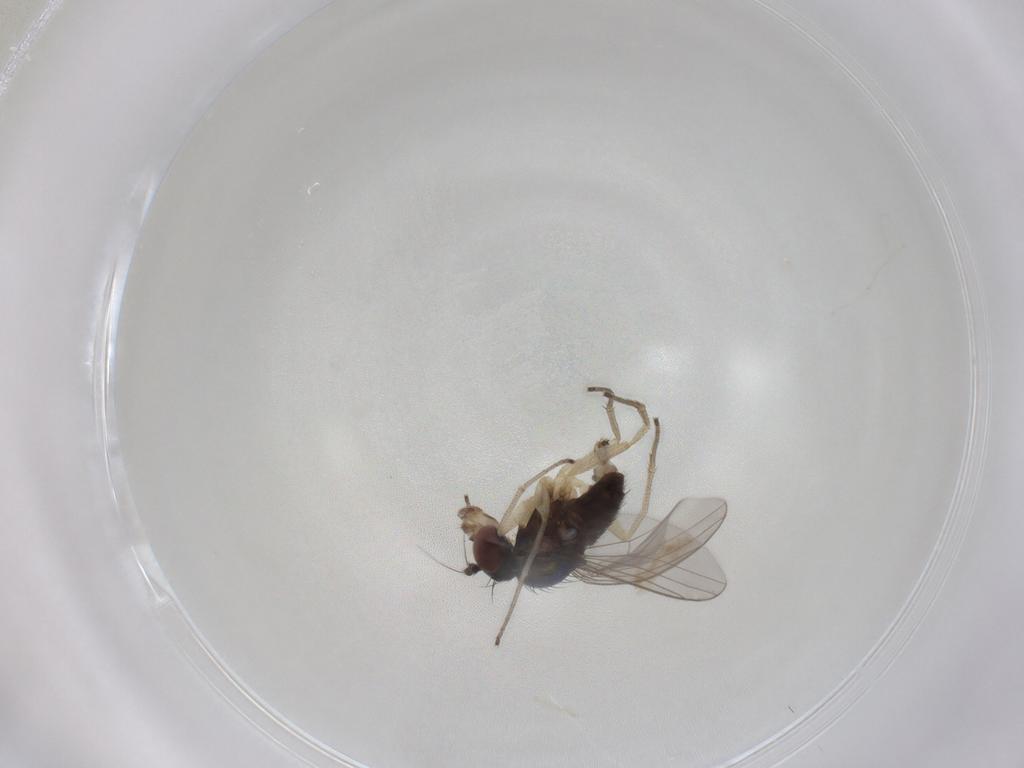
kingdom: Animalia
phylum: Arthropoda
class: Insecta
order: Diptera
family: Dolichopodidae
